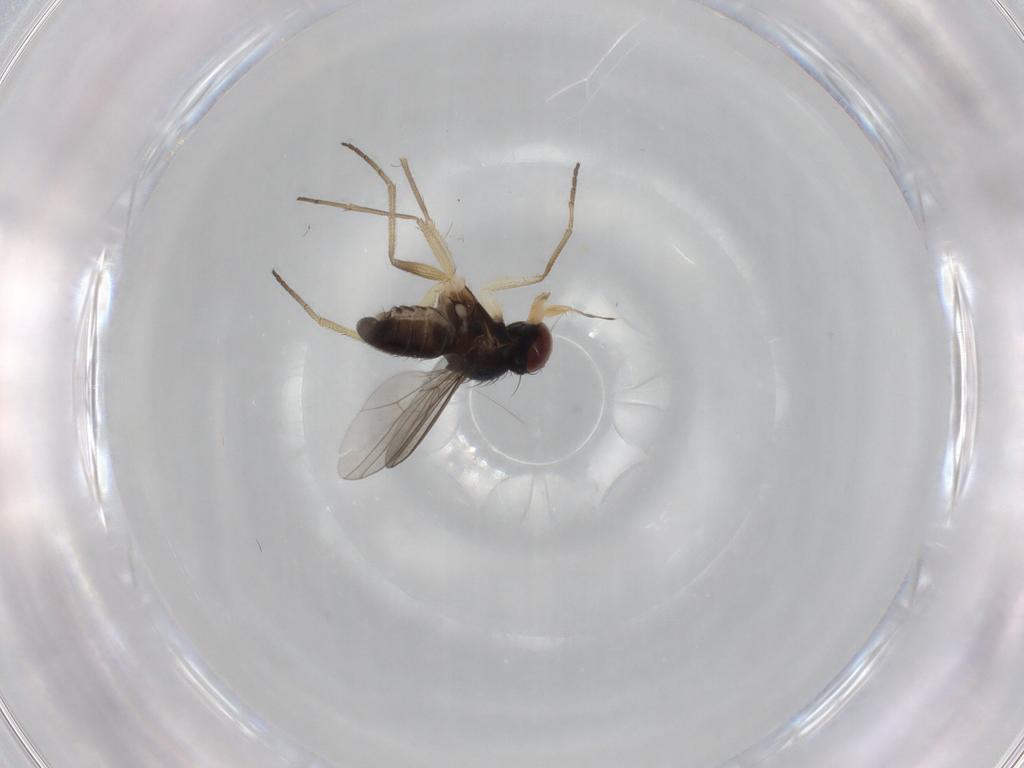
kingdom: Animalia
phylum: Arthropoda
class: Insecta
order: Diptera
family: Dolichopodidae
